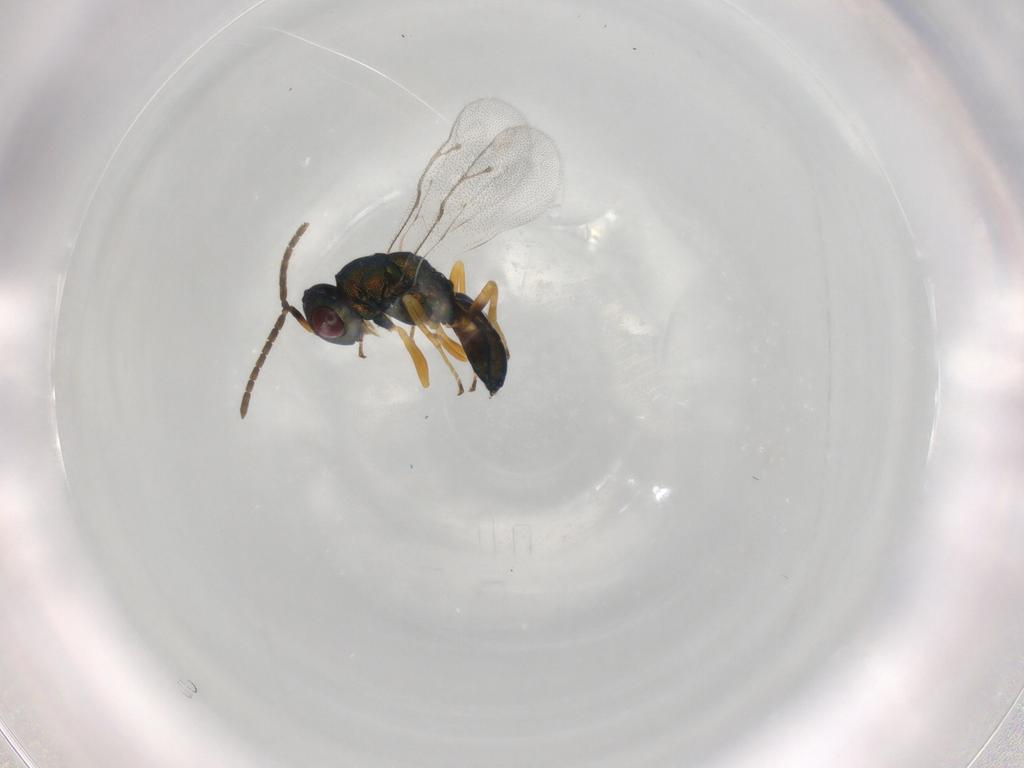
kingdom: Animalia
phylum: Arthropoda
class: Insecta
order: Hymenoptera
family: Pteromalidae
